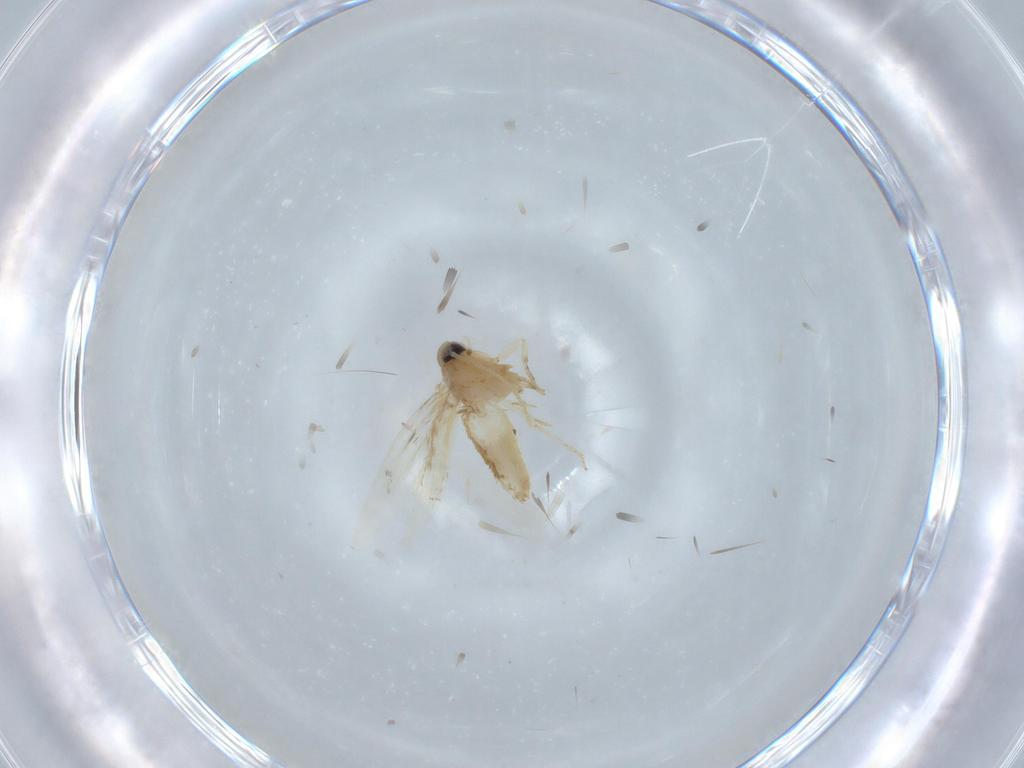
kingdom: Animalia
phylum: Arthropoda
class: Insecta
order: Lepidoptera
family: Nepticulidae
